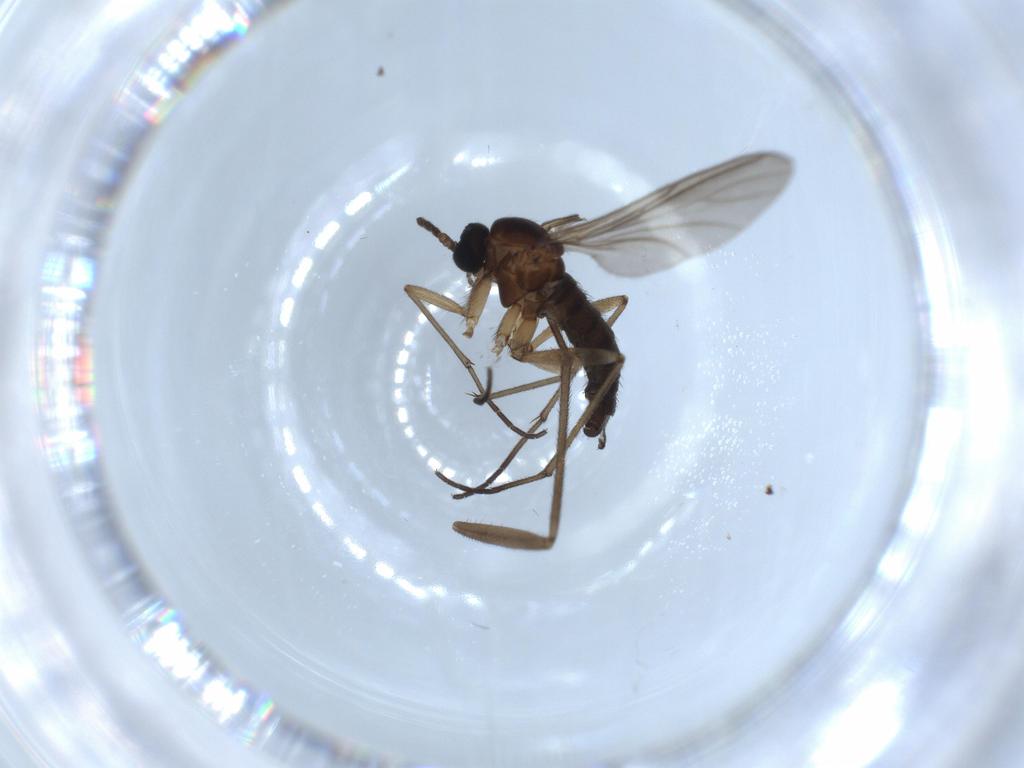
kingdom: Animalia
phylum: Arthropoda
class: Insecta
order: Diptera
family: Sciaridae
